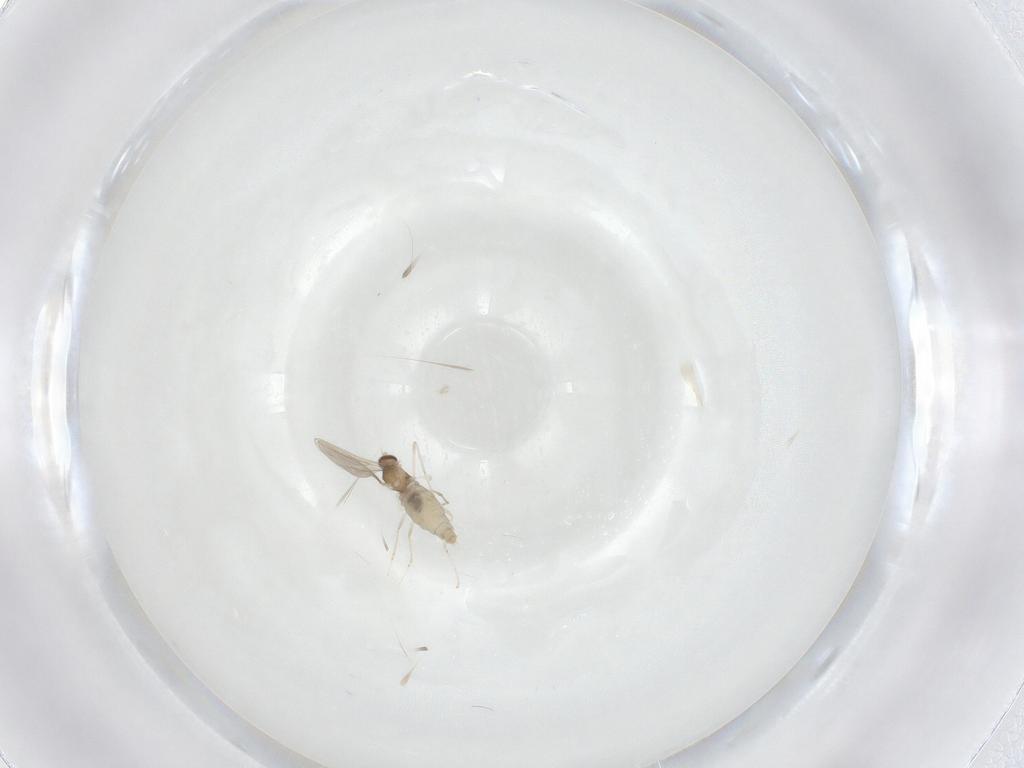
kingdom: Animalia
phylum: Arthropoda
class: Insecta
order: Diptera
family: Cecidomyiidae
